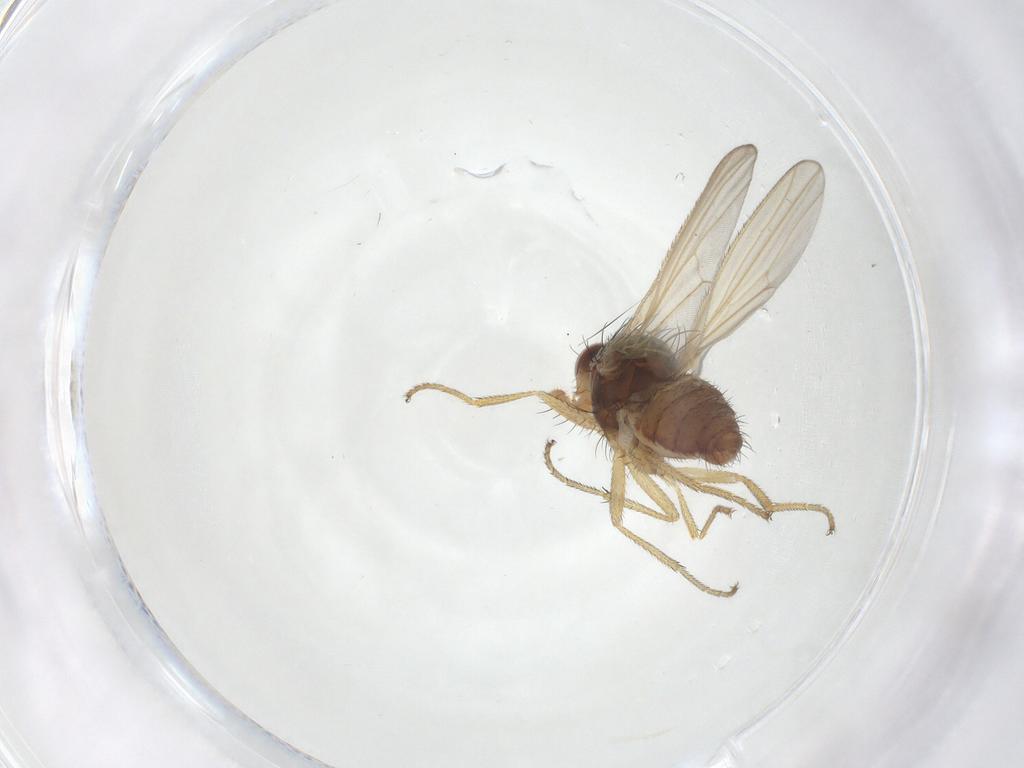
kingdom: Animalia
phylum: Arthropoda
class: Insecta
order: Diptera
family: Heleomyzidae
